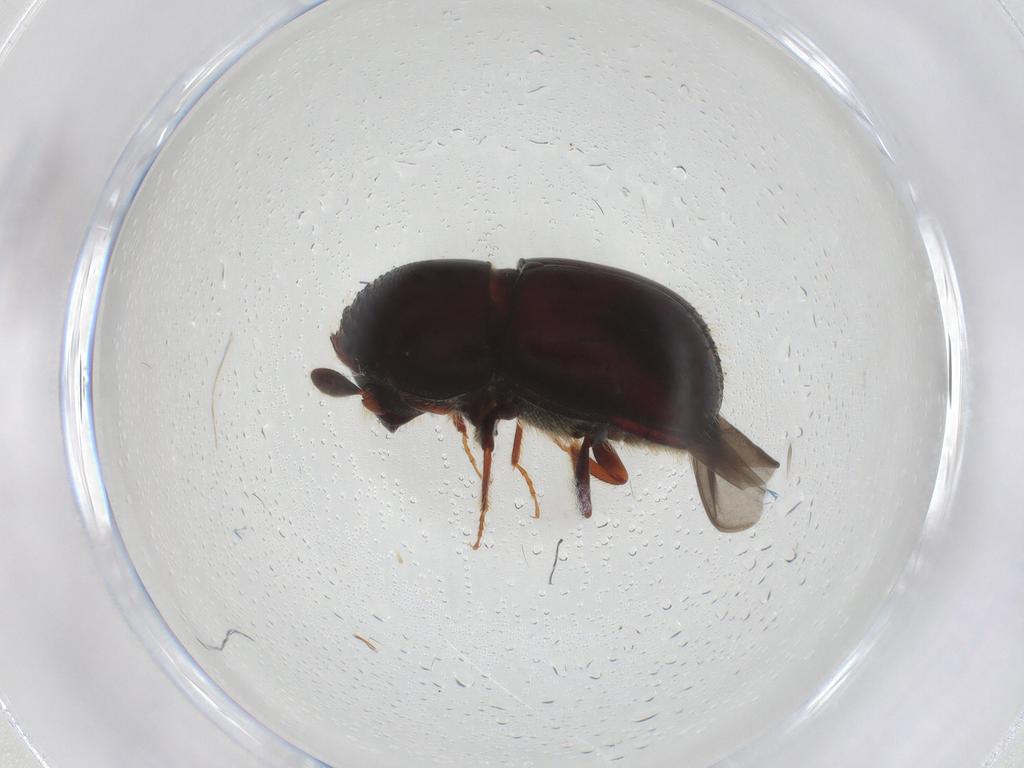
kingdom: Animalia
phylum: Arthropoda
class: Insecta
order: Coleoptera
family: Curculionidae
